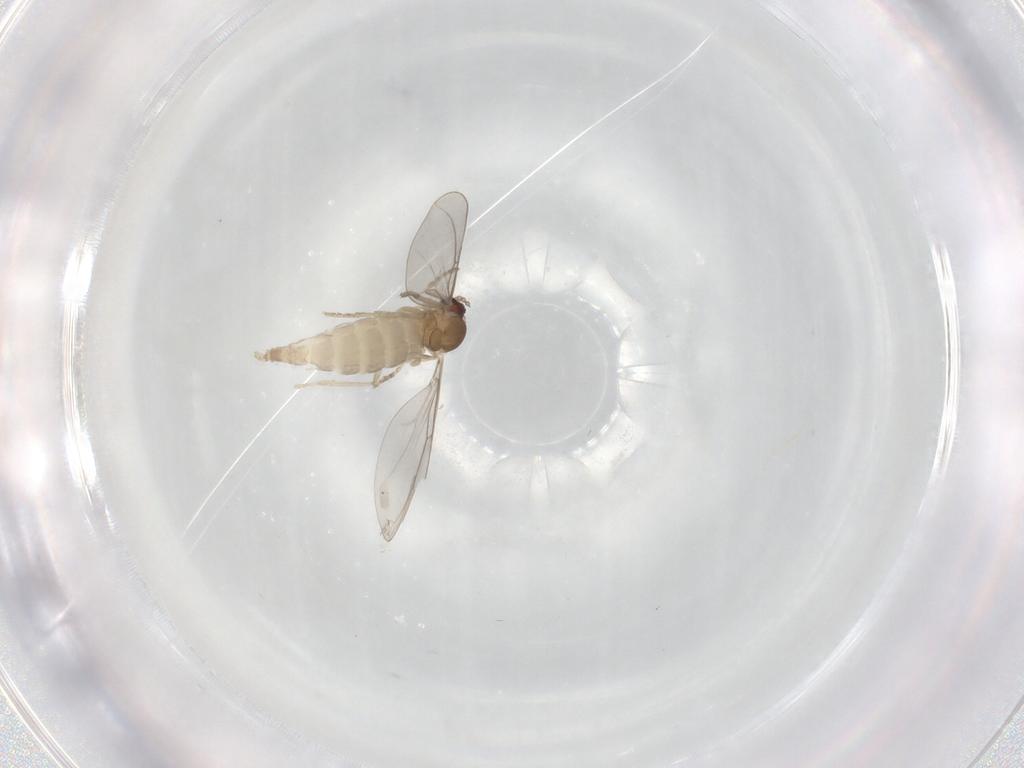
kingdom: Animalia
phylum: Arthropoda
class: Insecta
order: Diptera
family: Cecidomyiidae
